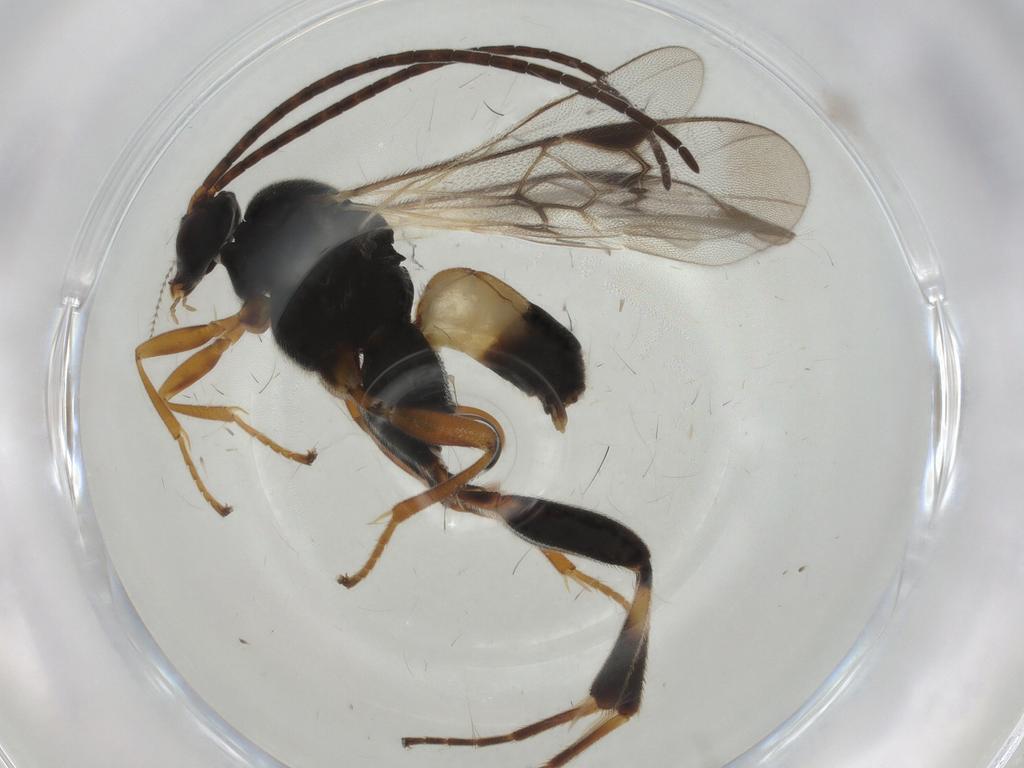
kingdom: Animalia
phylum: Arthropoda
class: Insecta
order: Hymenoptera
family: Braconidae
